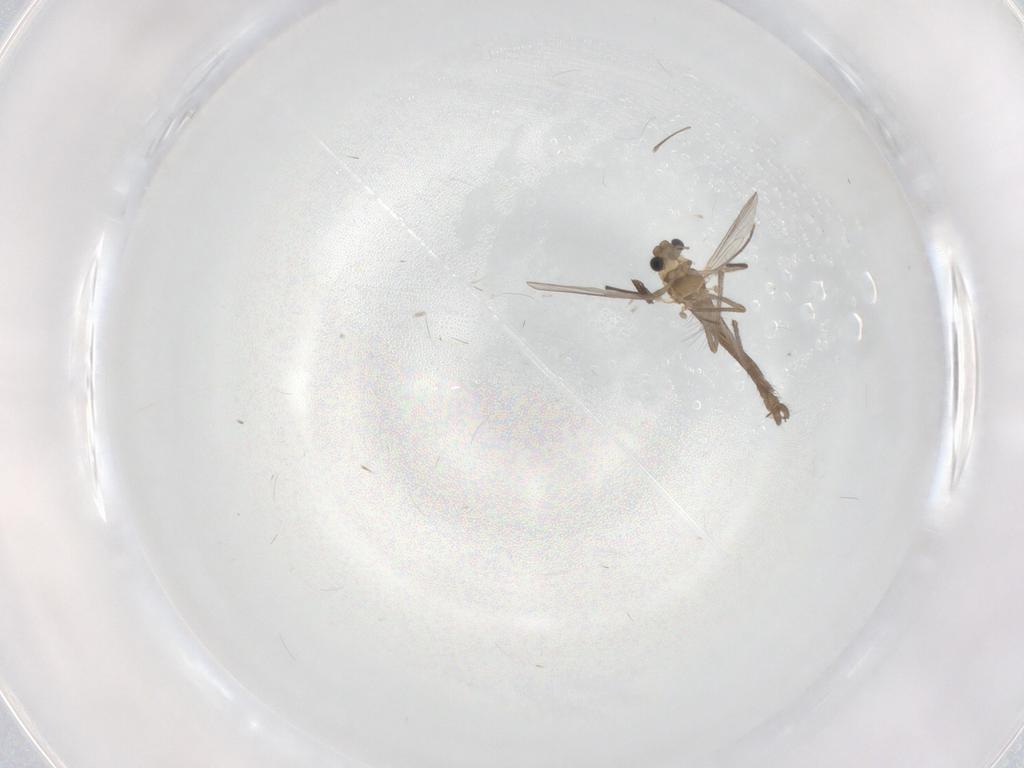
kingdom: Animalia
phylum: Arthropoda
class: Insecta
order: Diptera
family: Chironomidae
